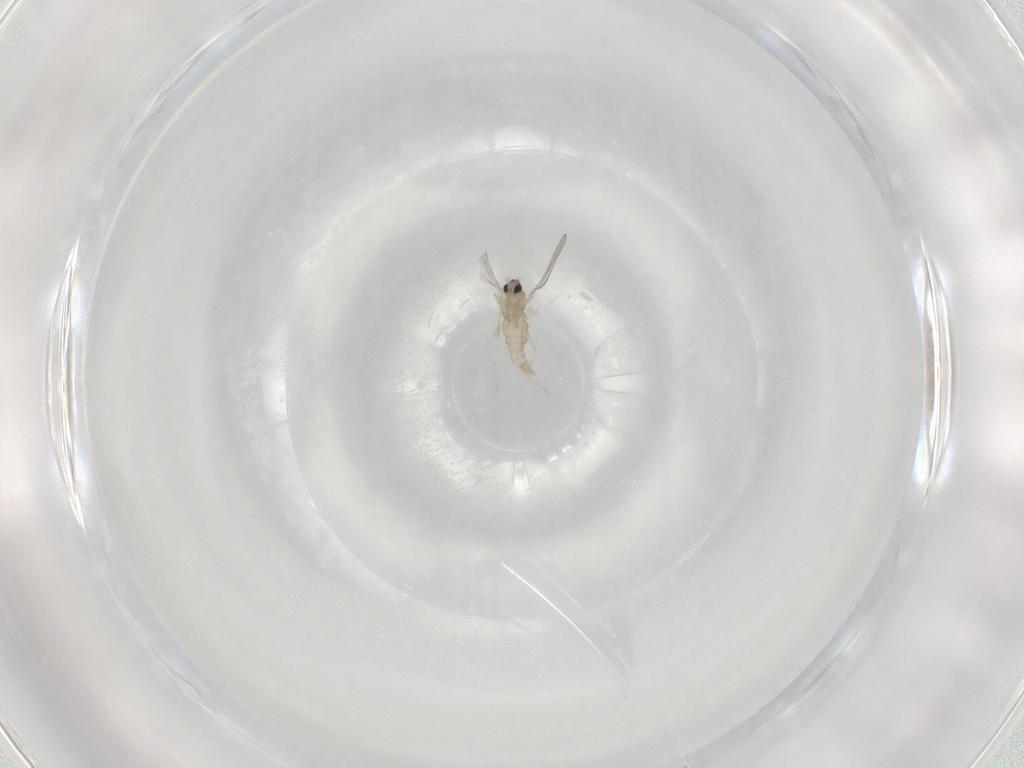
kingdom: Animalia
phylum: Arthropoda
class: Insecta
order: Diptera
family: Cecidomyiidae
